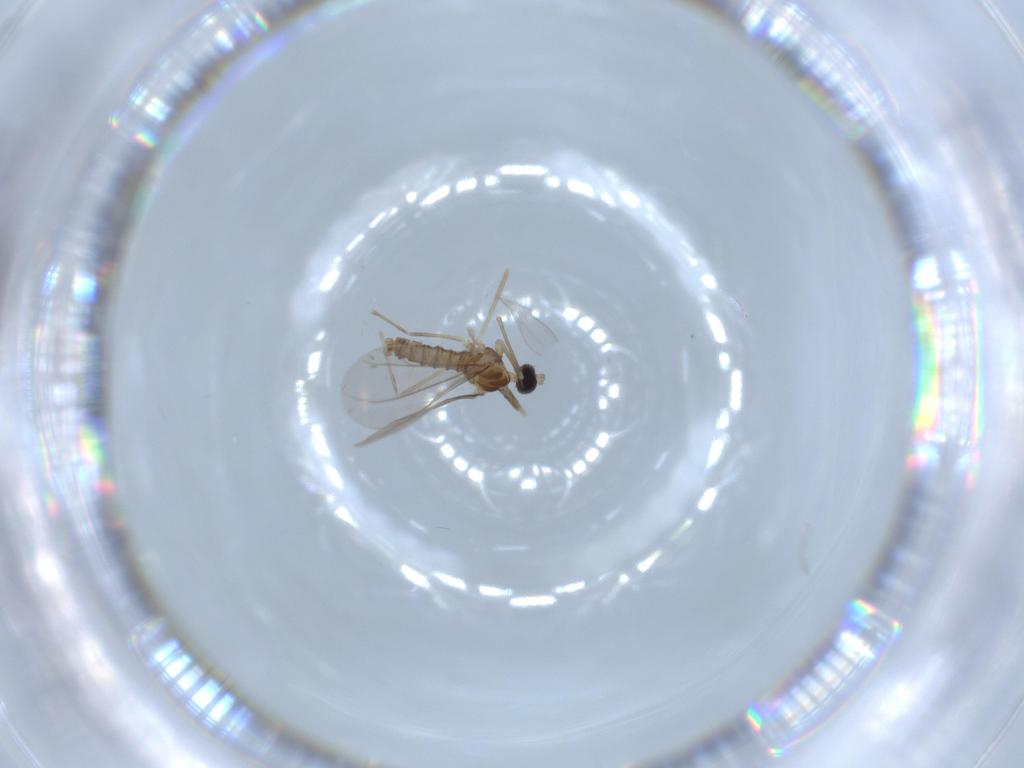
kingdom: Animalia
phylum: Arthropoda
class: Insecta
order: Diptera
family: Cecidomyiidae
